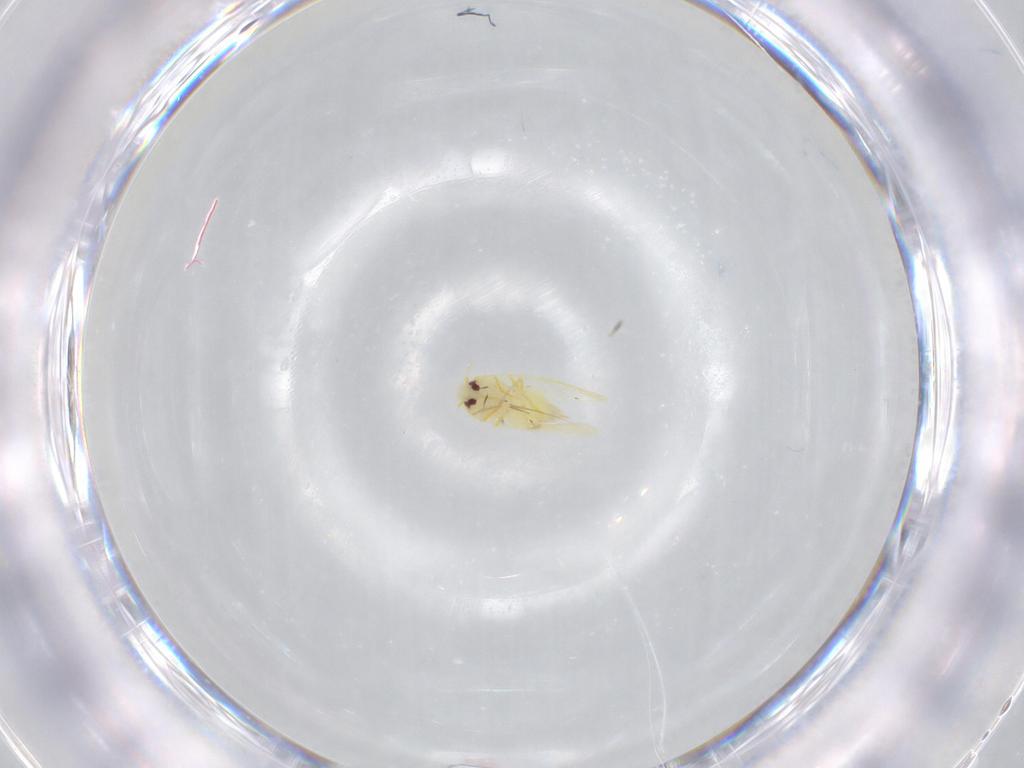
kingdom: Animalia
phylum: Arthropoda
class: Insecta
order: Hemiptera
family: Aleyrodidae
